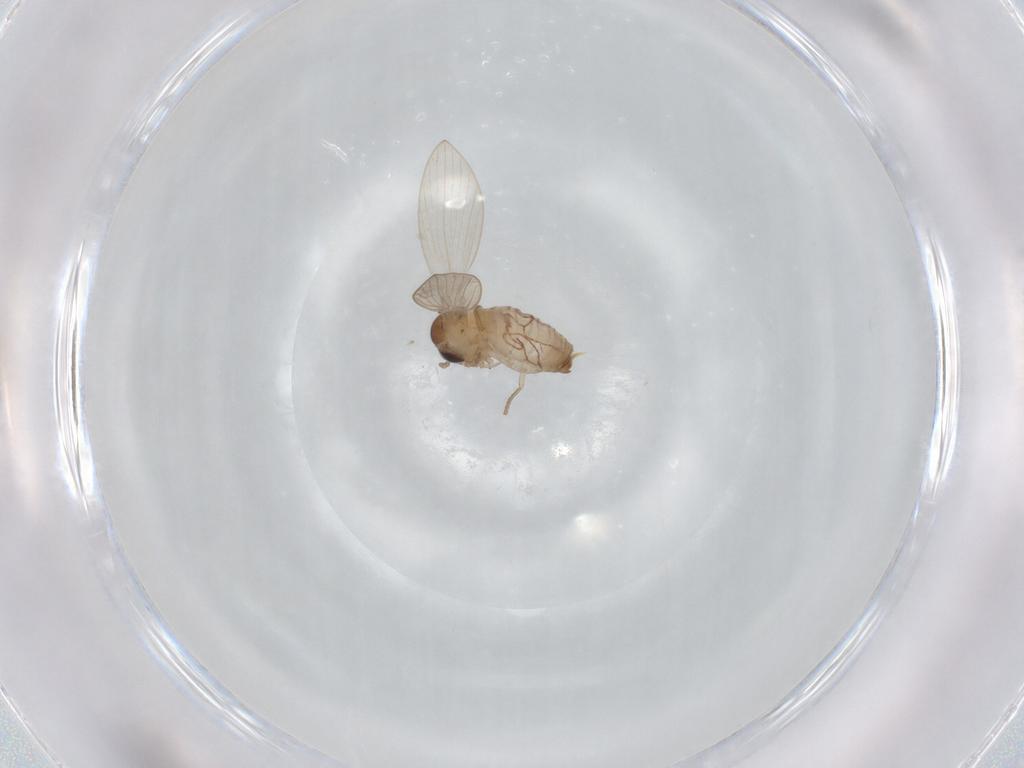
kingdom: Animalia
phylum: Arthropoda
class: Insecta
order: Diptera
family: Psychodidae
